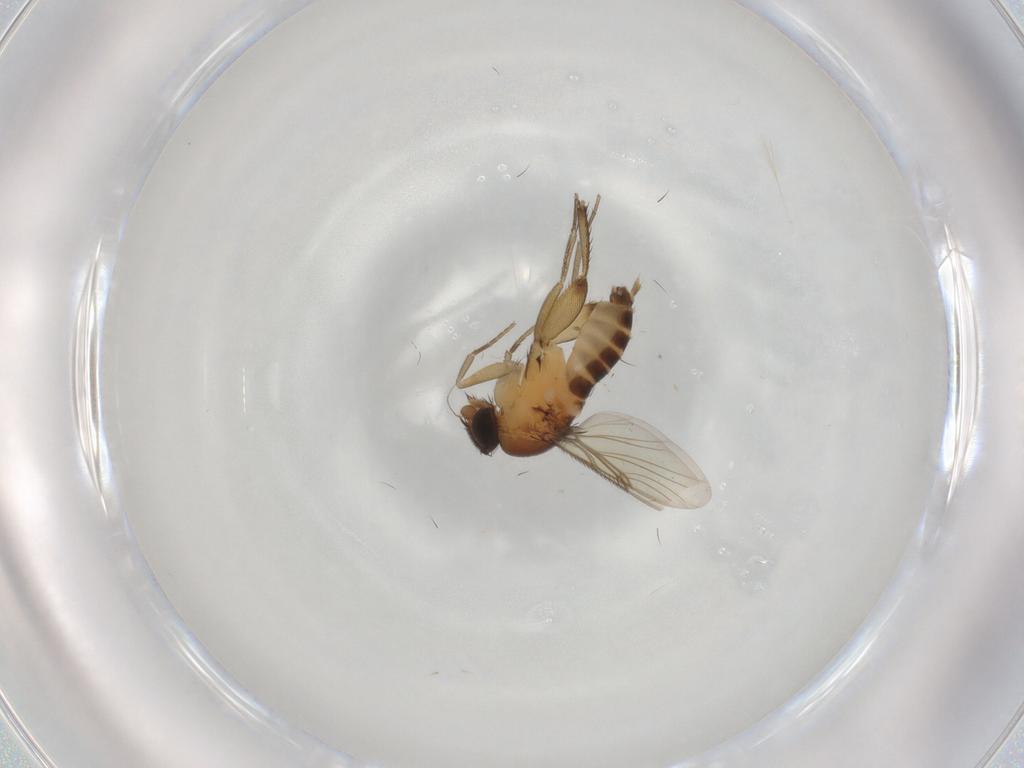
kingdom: Animalia
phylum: Arthropoda
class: Insecta
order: Diptera
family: Phoridae
